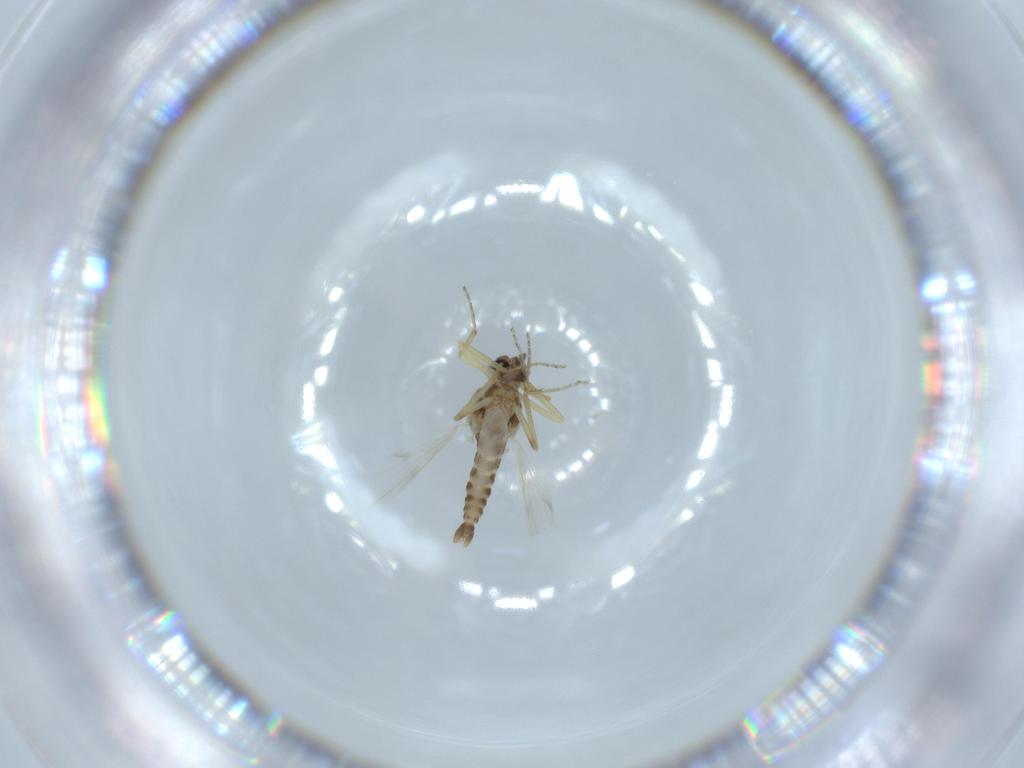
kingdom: Animalia
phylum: Arthropoda
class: Insecta
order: Diptera
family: Ceratopogonidae
